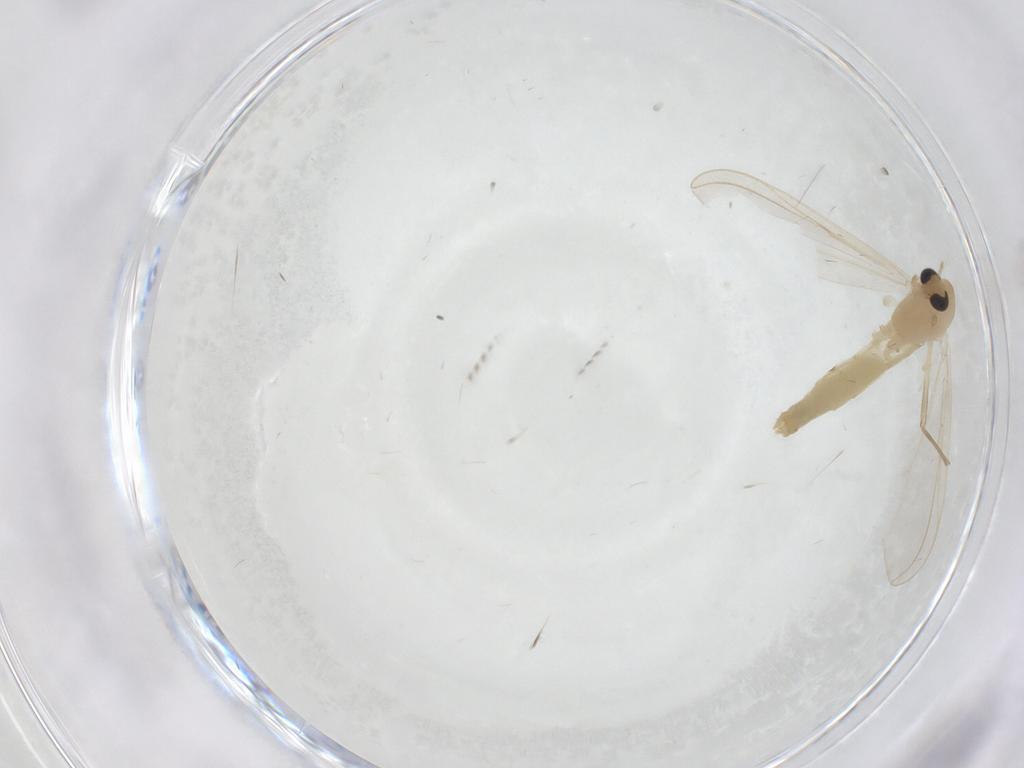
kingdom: Animalia
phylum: Arthropoda
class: Insecta
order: Diptera
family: Chironomidae
